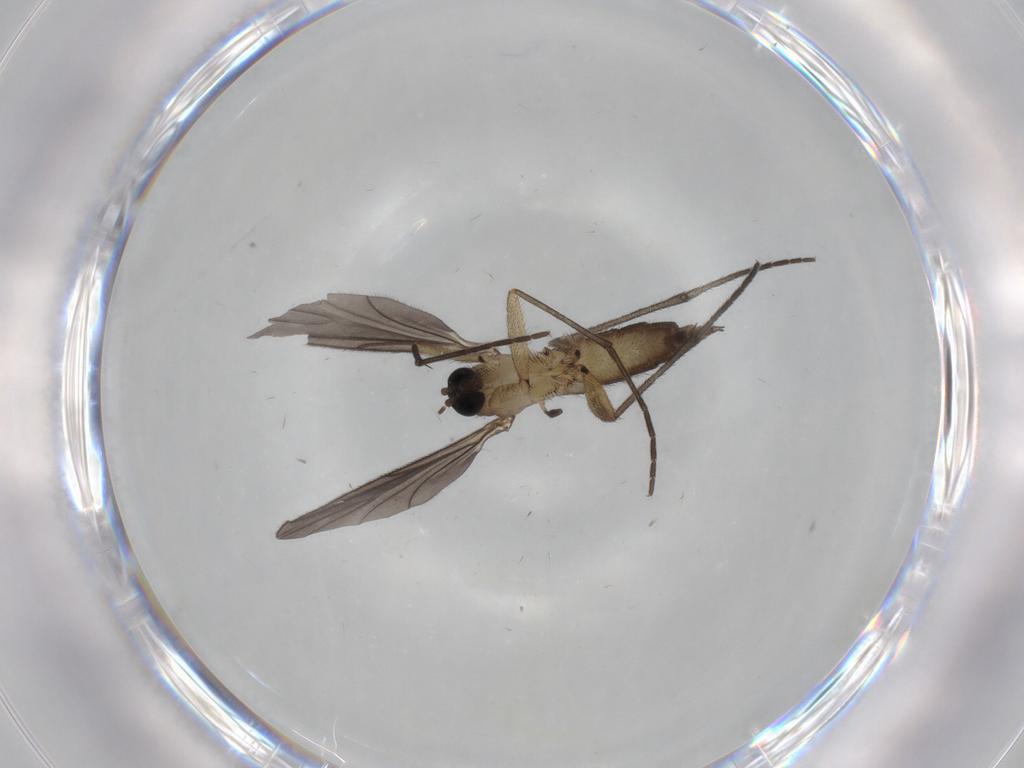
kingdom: Animalia
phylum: Arthropoda
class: Insecta
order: Diptera
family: Sciaridae
